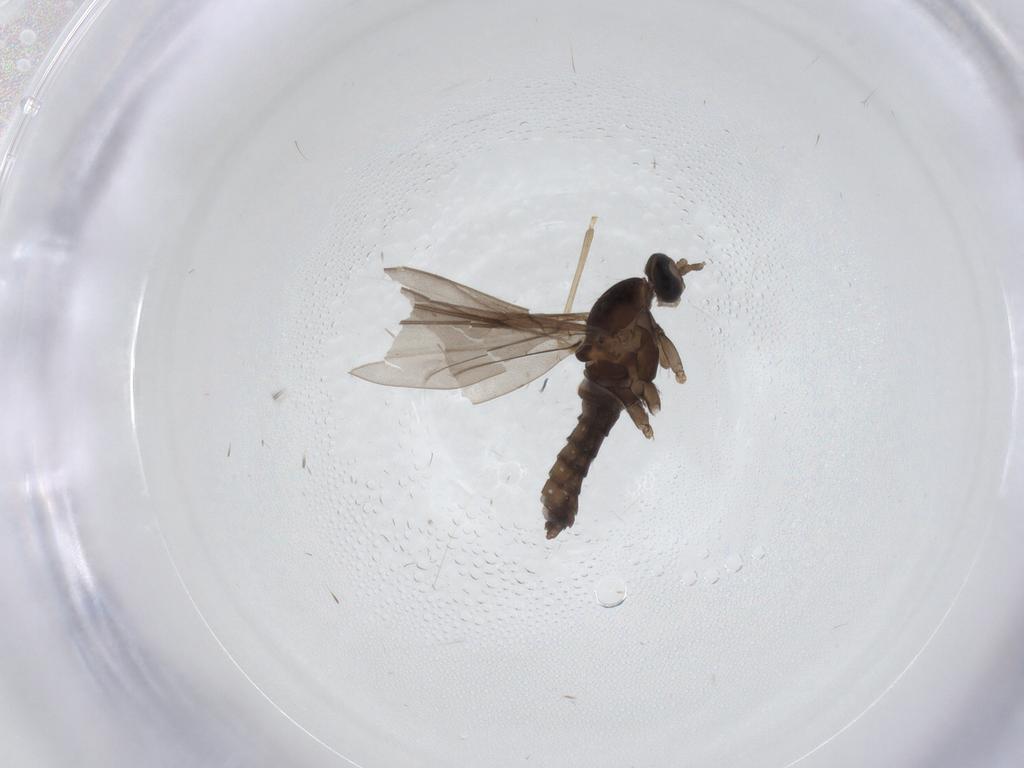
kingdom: Animalia
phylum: Arthropoda
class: Insecta
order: Diptera
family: Cecidomyiidae
